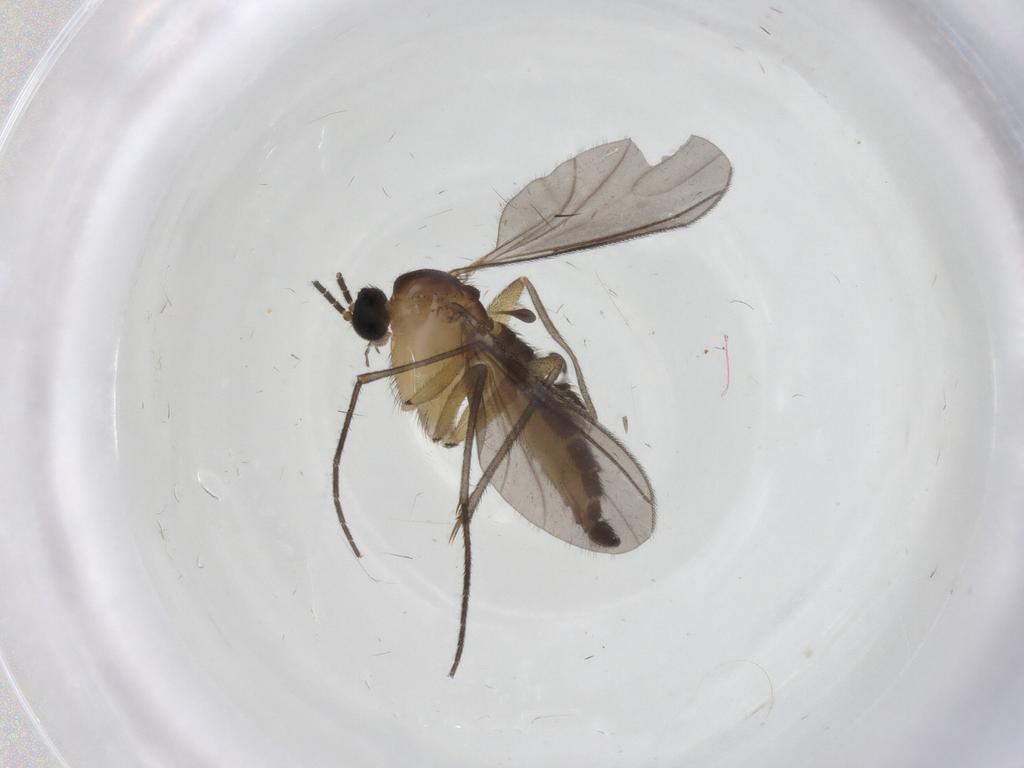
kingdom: Animalia
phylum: Arthropoda
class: Insecta
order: Diptera
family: Sciaridae
